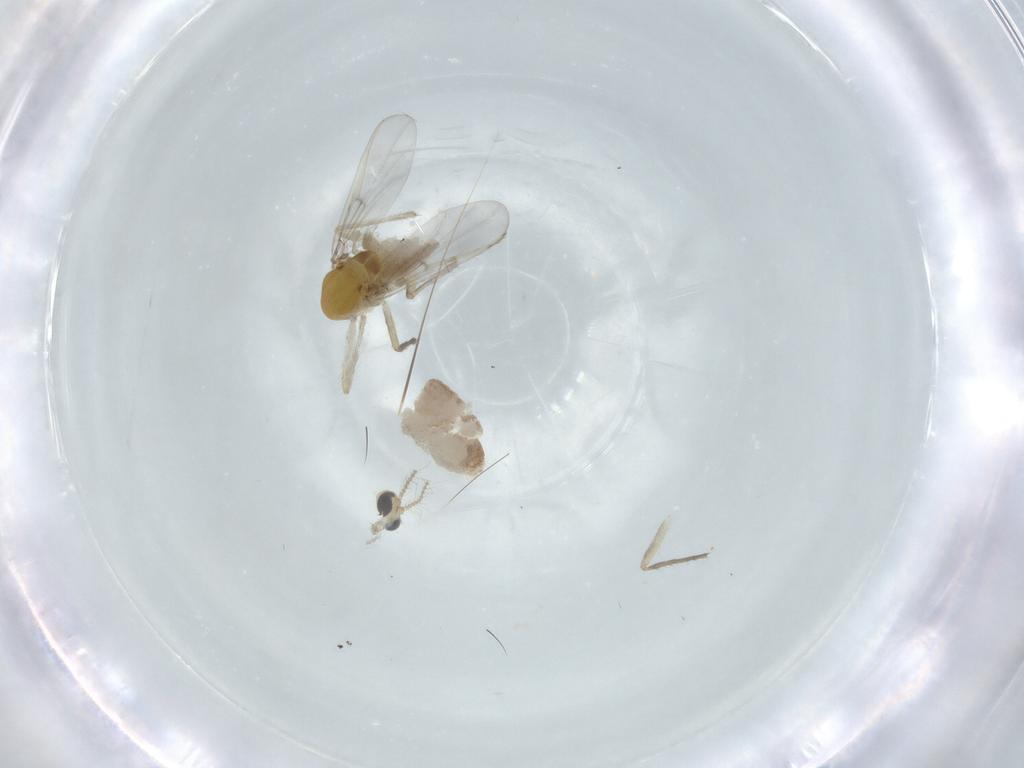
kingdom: Animalia
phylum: Arthropoda
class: Insecta
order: Diptera
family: Chironomidae
